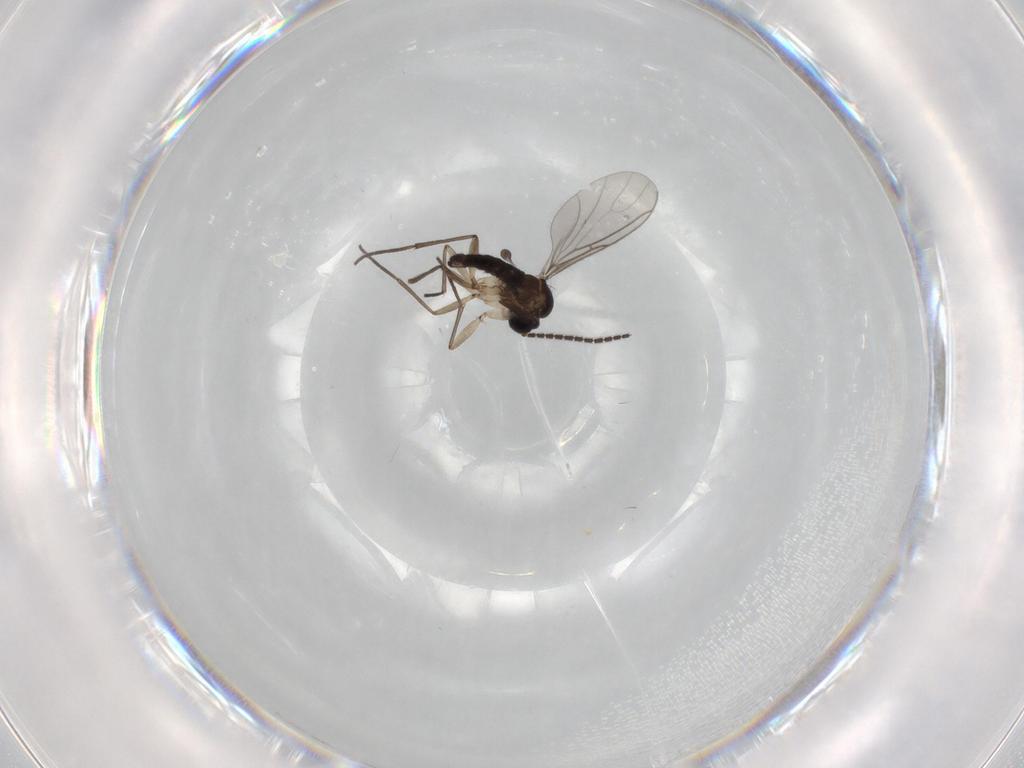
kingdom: Animalia
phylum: Arthropoda
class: Insecta
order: Diptera
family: Sciaridae
